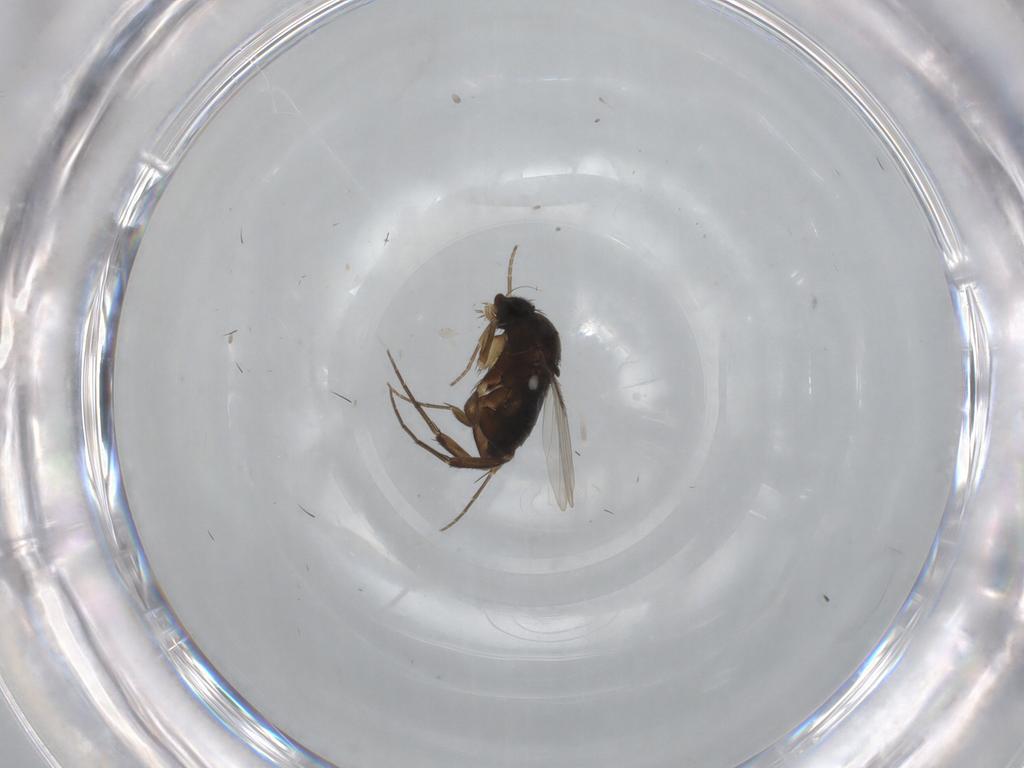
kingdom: Animalia
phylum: Arthropoda
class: Insecta
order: Diptera
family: Phoridae
